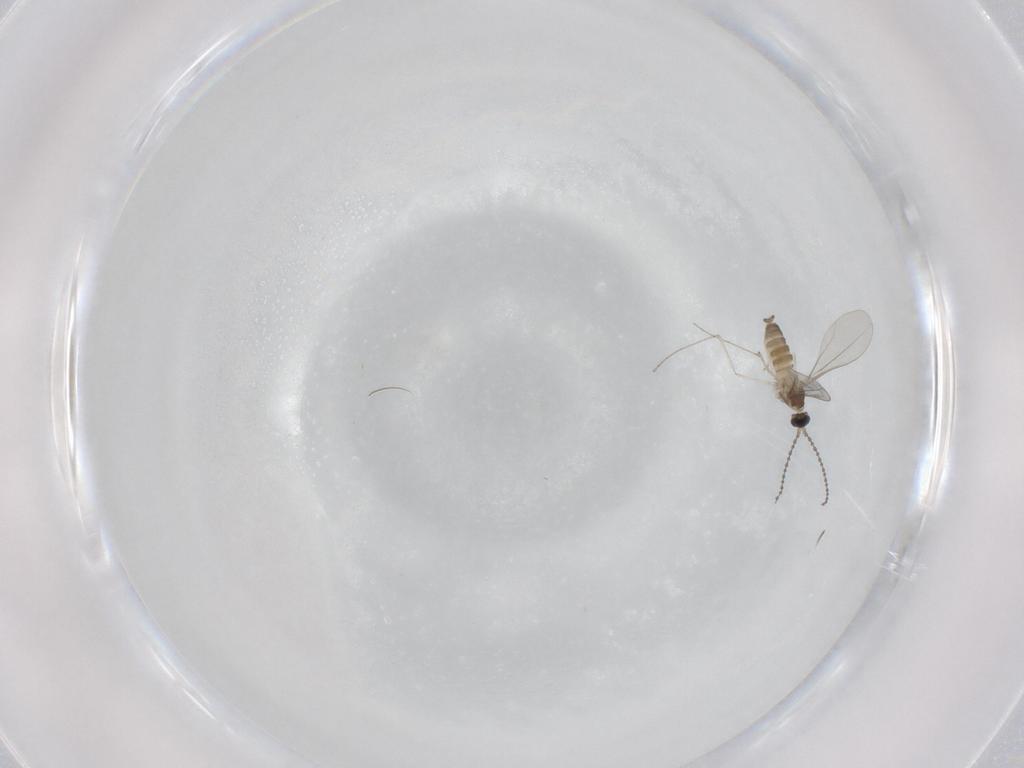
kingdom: Animalia
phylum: Arthropoda
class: Insecta
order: Diptera
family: Cecidomyiidae
